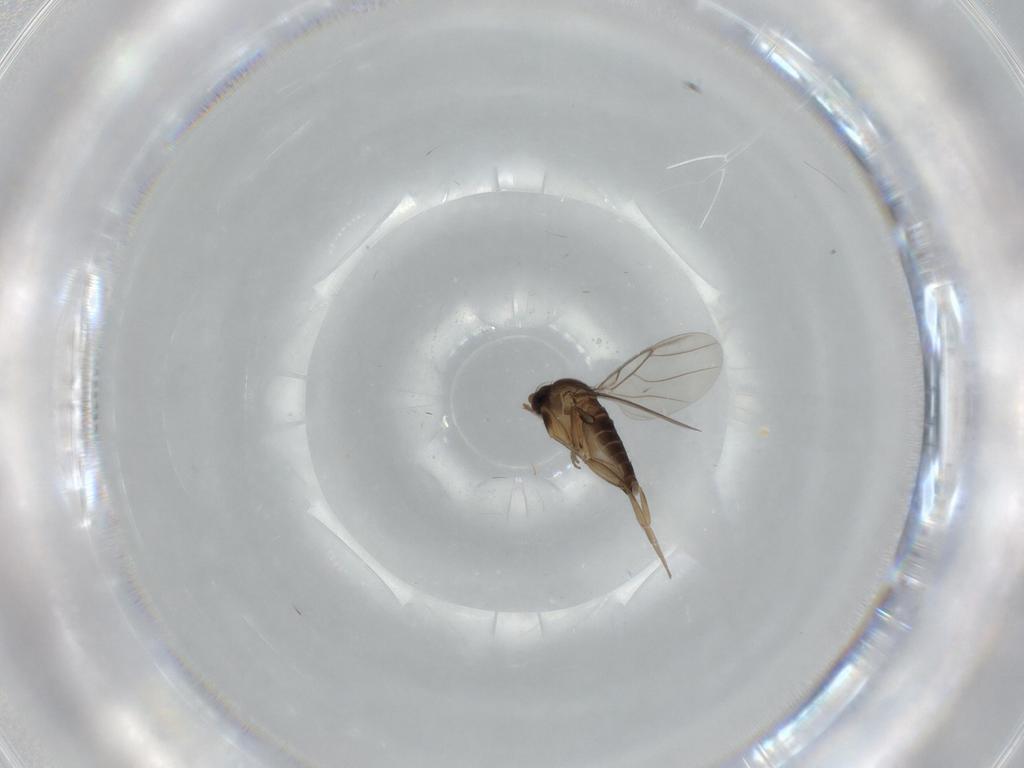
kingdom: Animalia
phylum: Arthropoda
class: Insecta
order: Diptera
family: Phoridae
